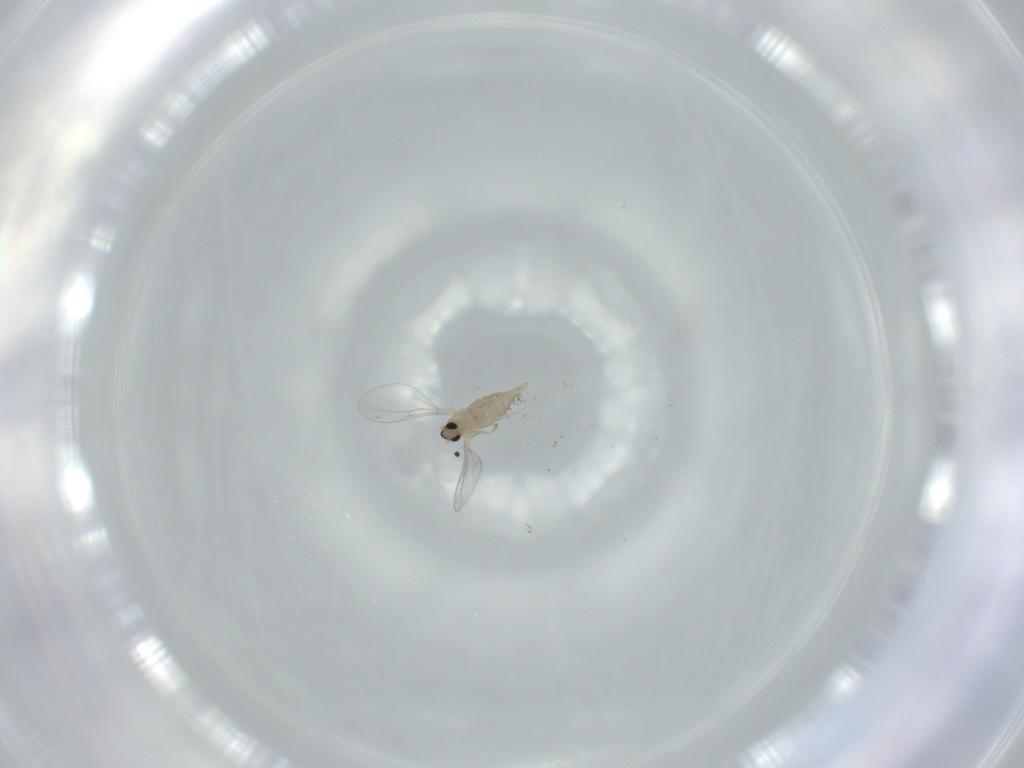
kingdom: Animalia
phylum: Arthropoda
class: Insecta
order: Diptera
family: Cecidomyiidae
